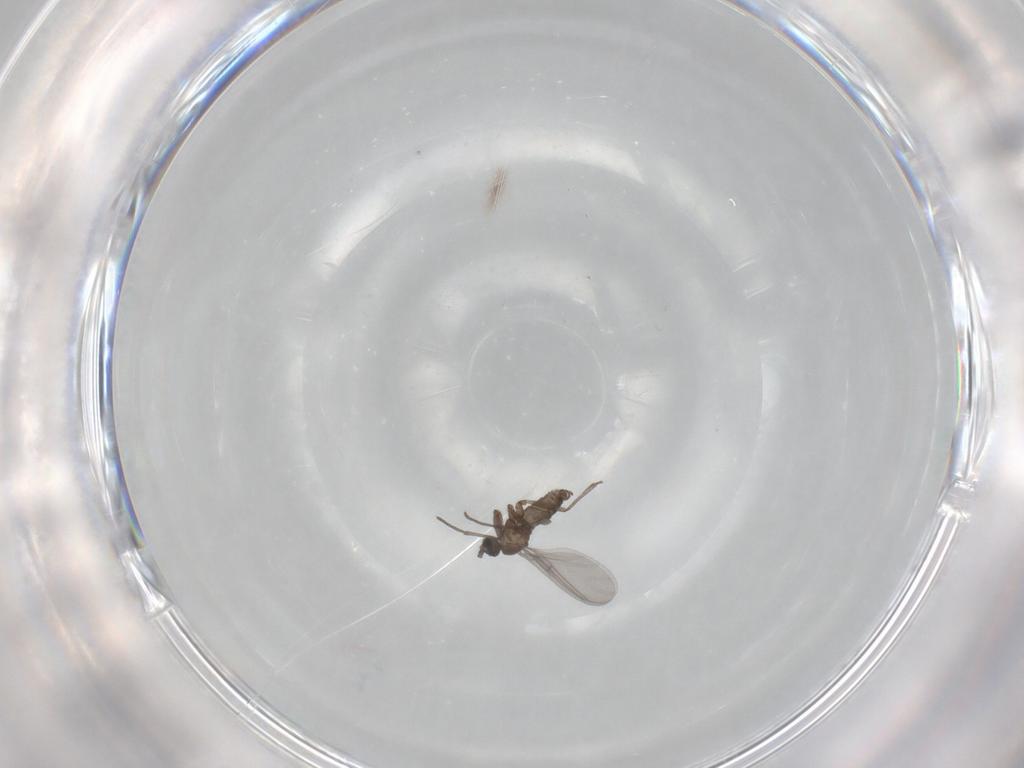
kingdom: Animalia
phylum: Arthropoda
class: Insecta
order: Diptera
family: Sciaridae
